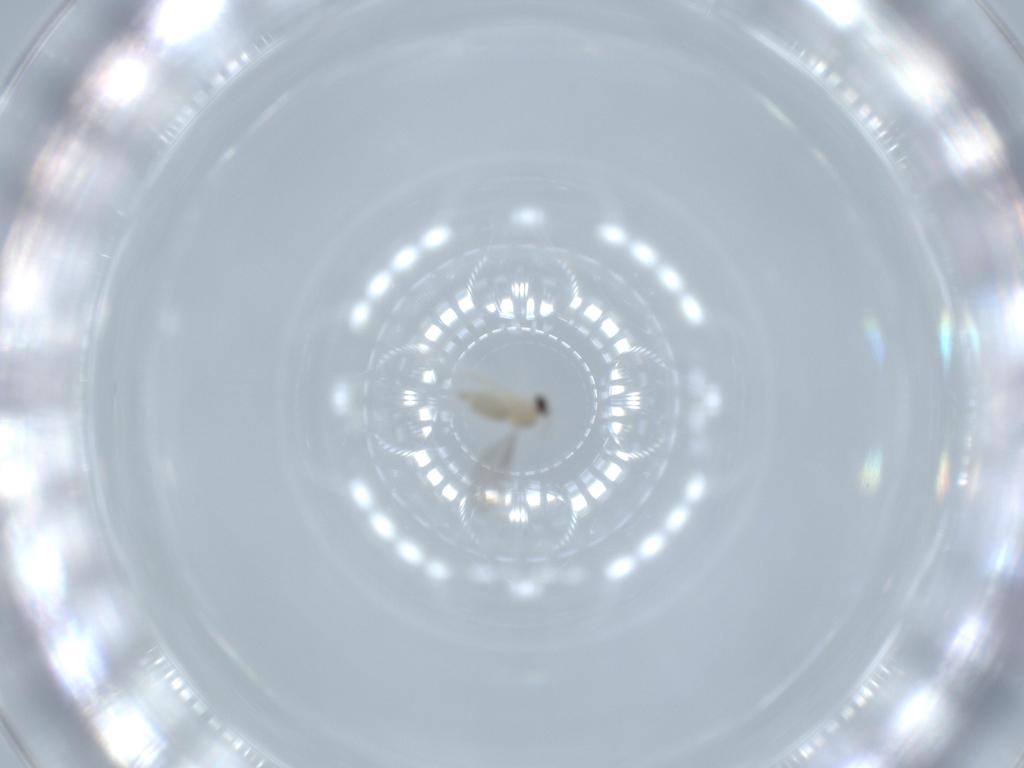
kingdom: Animalia
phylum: Arthropoda
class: Insecta
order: Diptera
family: Cecidomyiidae
